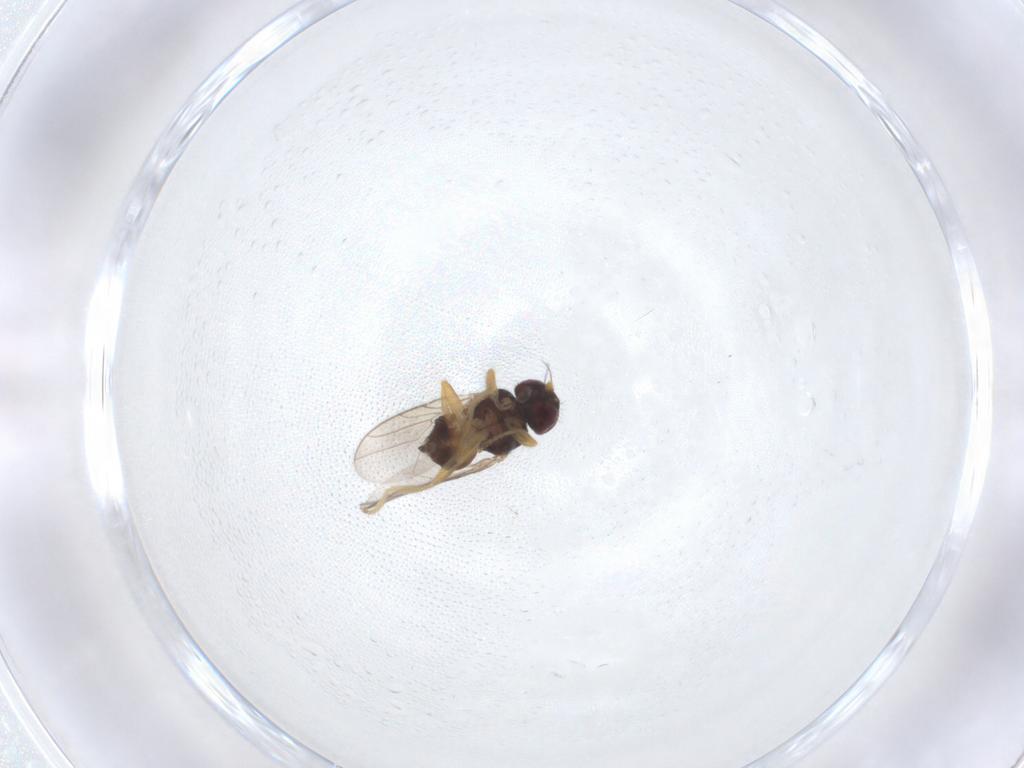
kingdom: Animalia
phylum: Arthropoda
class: Insecta
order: Diptera
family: Chloropidae
